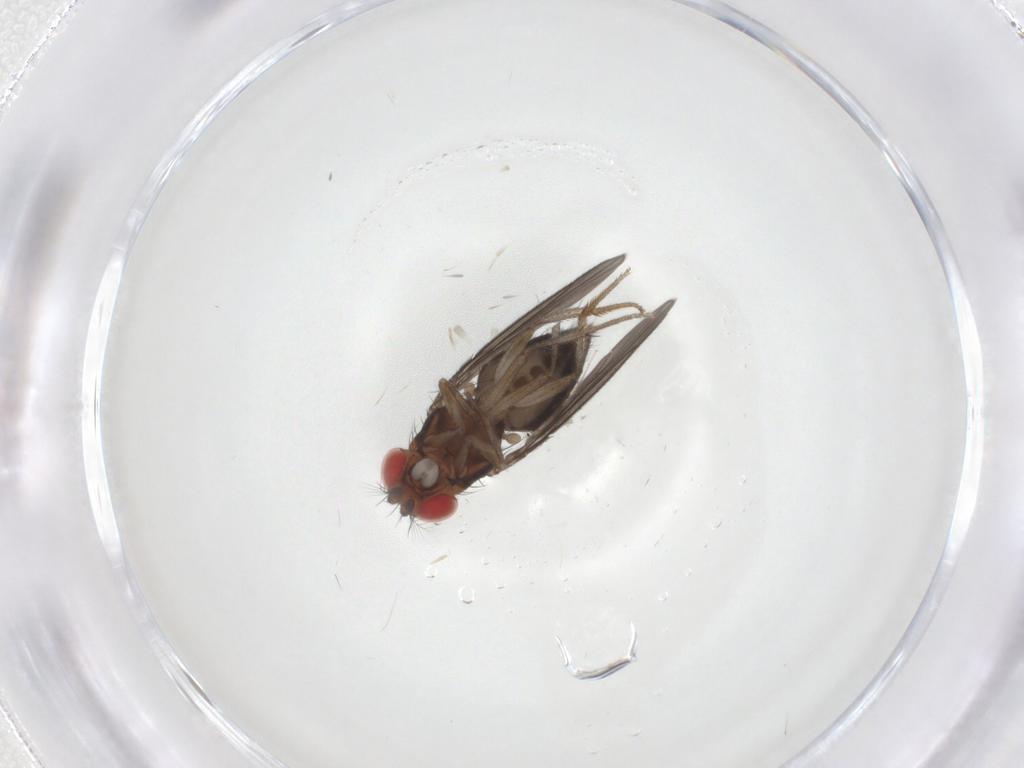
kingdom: Animalia
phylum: Arthropoda
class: Insecta
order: Diptera
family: Drosophilidae
